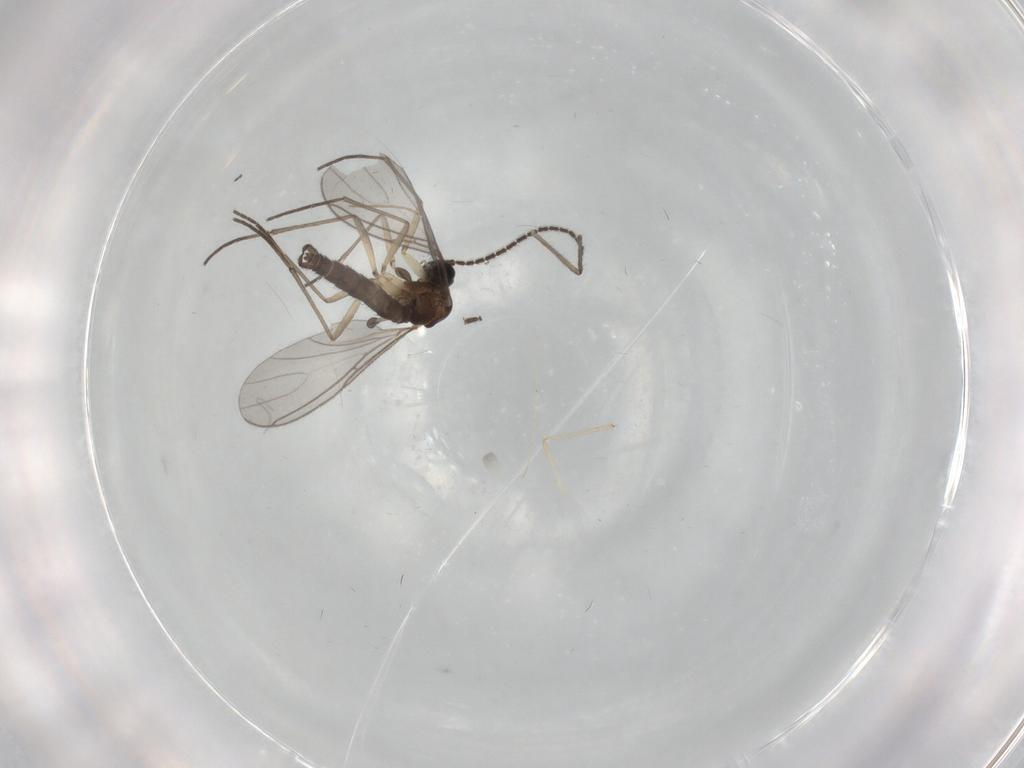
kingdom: Animalia
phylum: Arthropoda
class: Insecta
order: Diptera
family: Sciaridae
